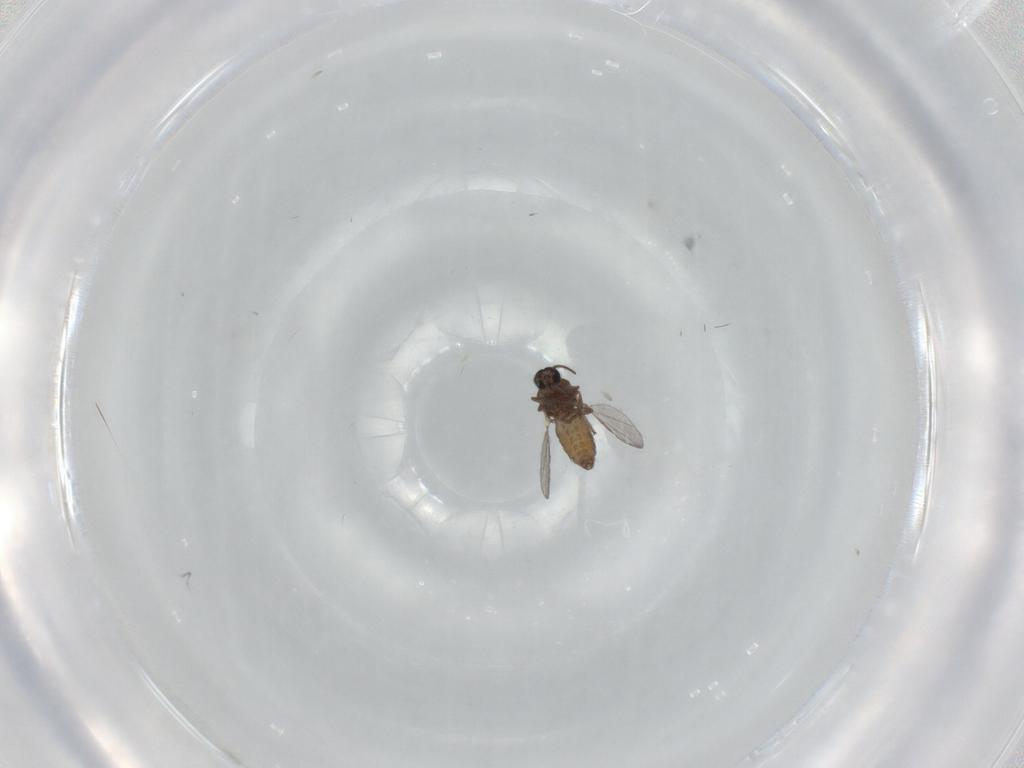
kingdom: Animalia
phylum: Arthropoda
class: Insecta
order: Diptera
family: Ceratopogonidae
